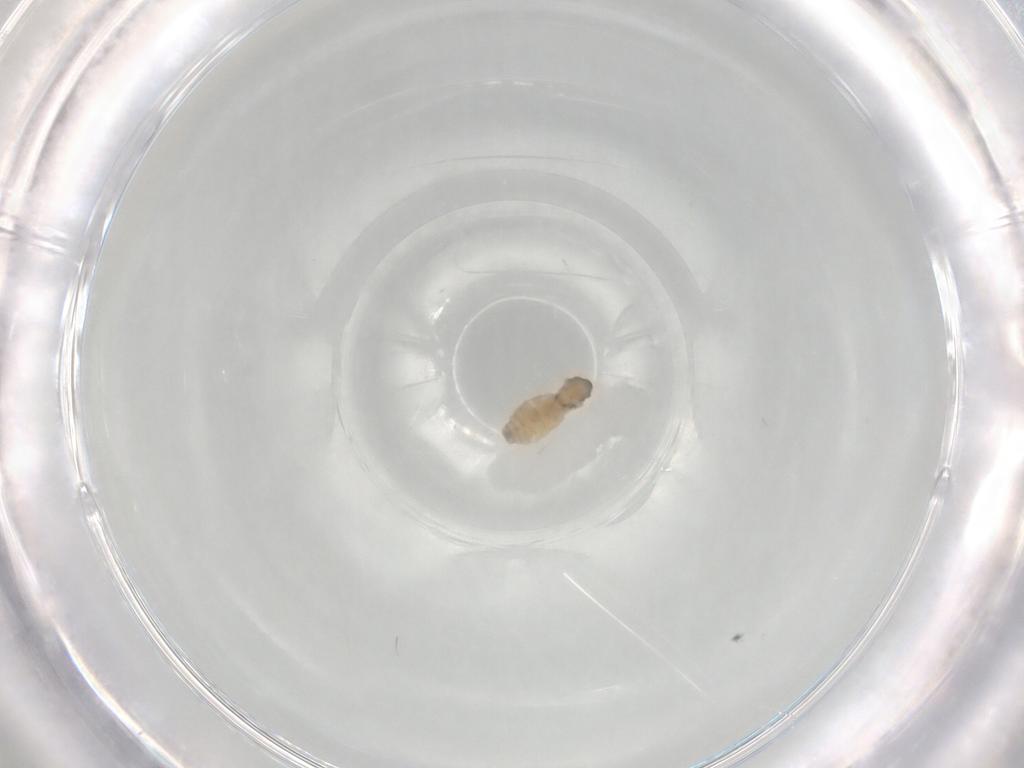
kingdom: Animalia
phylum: Arthropoda
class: Insecta
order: Diptera
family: Cecidomyiidae
